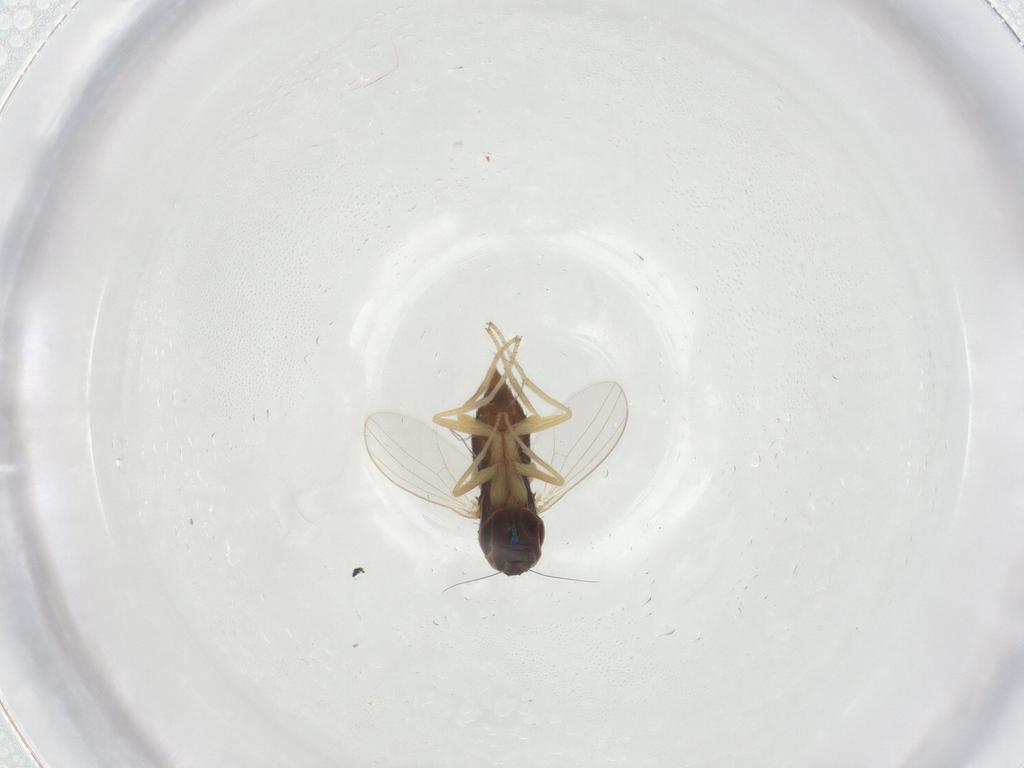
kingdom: Animalia
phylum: Arthropoda
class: Insecta
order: Diptera
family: Dolichopodidae
